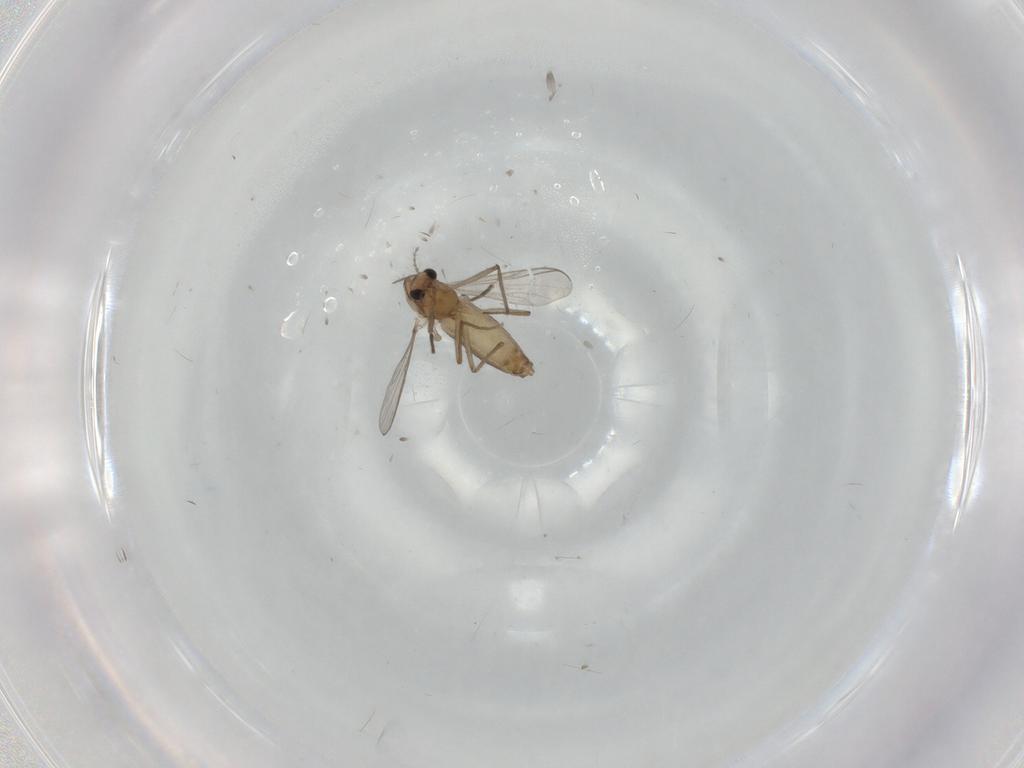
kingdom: Animalia
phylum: Arthropoda
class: Insecta
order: Diptera
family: Chironomidae
